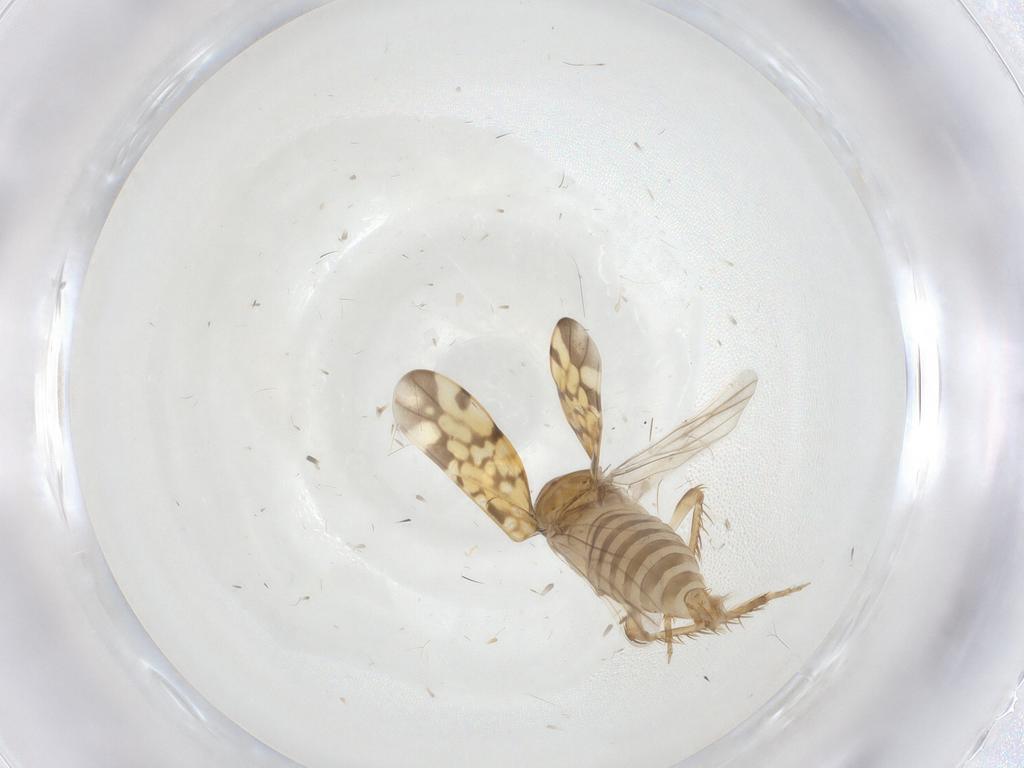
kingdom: Animalia
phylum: Arthropoda
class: Insecta
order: Hemiptera
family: Cicadellidae
